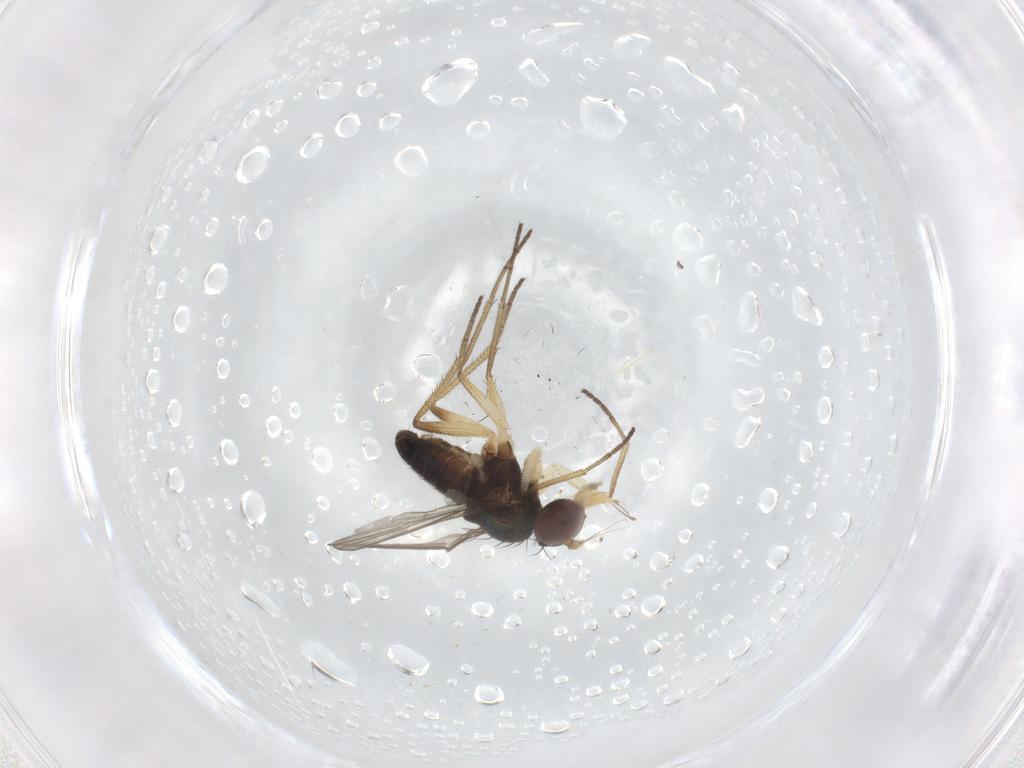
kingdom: Animalia
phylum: Arthropoda
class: Insecta
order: Diptera
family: Dolichopodidae
